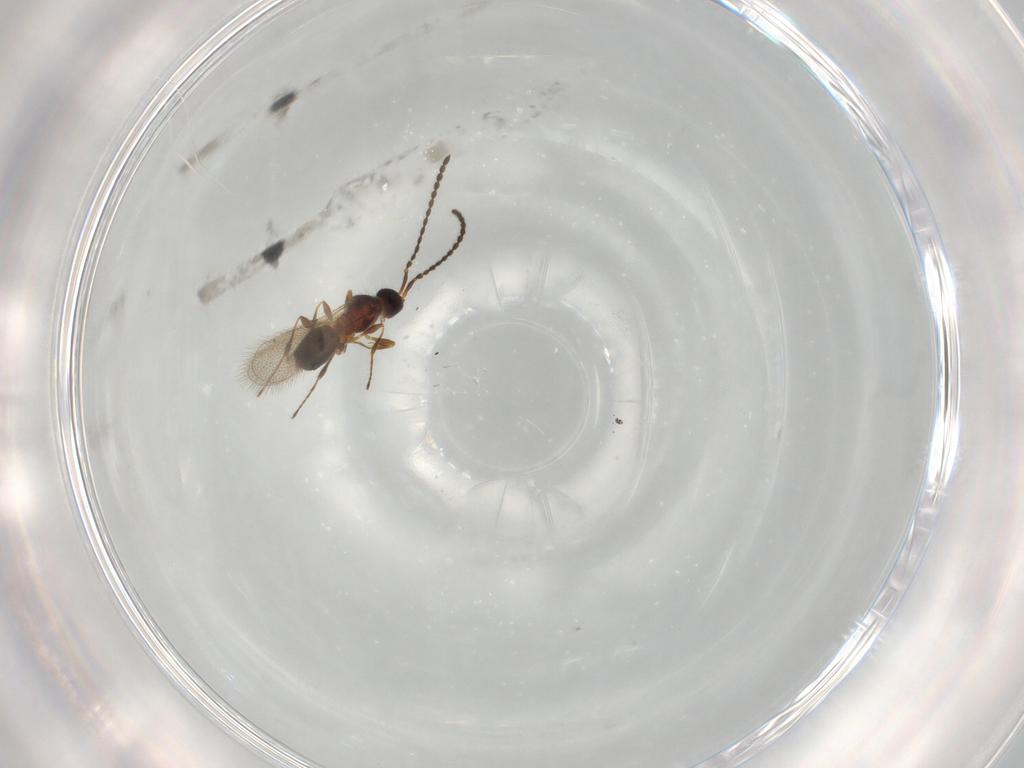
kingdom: Animalia
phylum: Arthropoda
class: Insecta
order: Hymenoptera
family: Diapriidae
